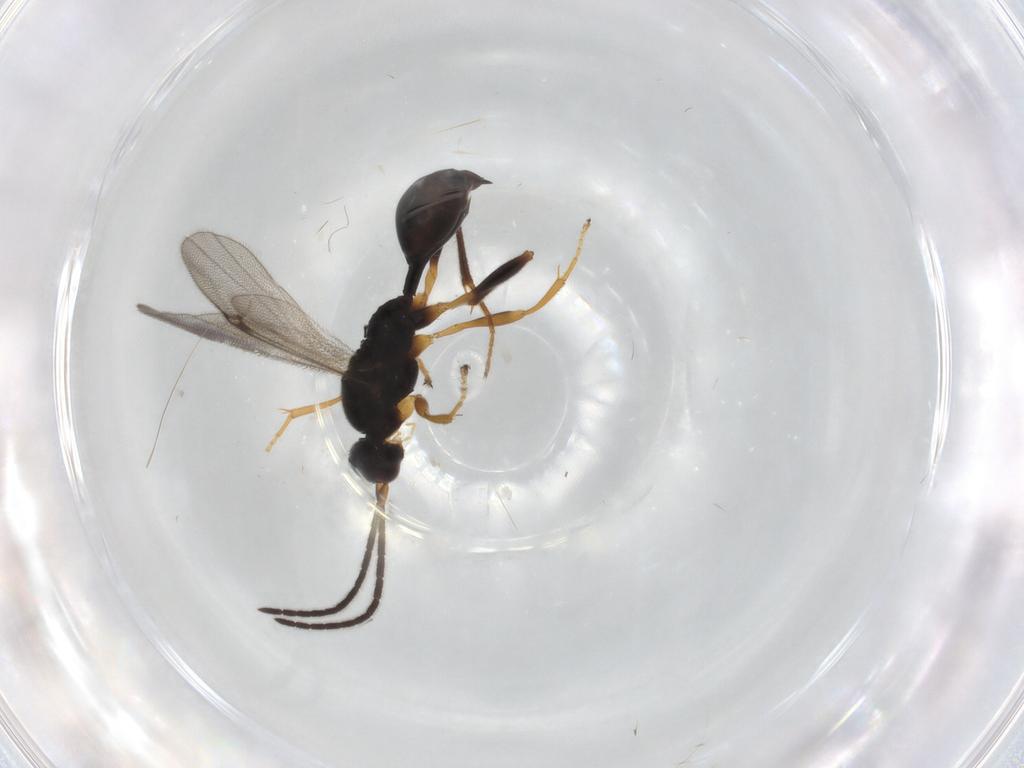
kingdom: Animalia
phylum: Arthropoda
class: Insecta
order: Hymenoptera
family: Proctotrupidae
